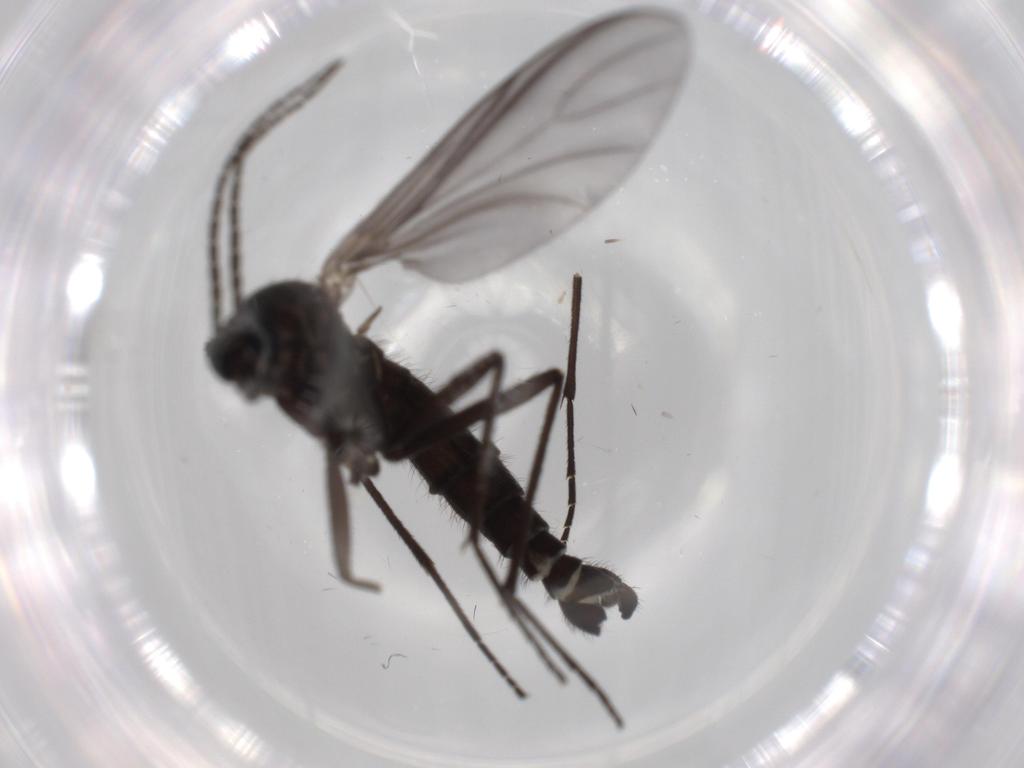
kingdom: Animalia
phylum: Arthropoda
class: Insecta
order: Diptera
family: Sciaridae
